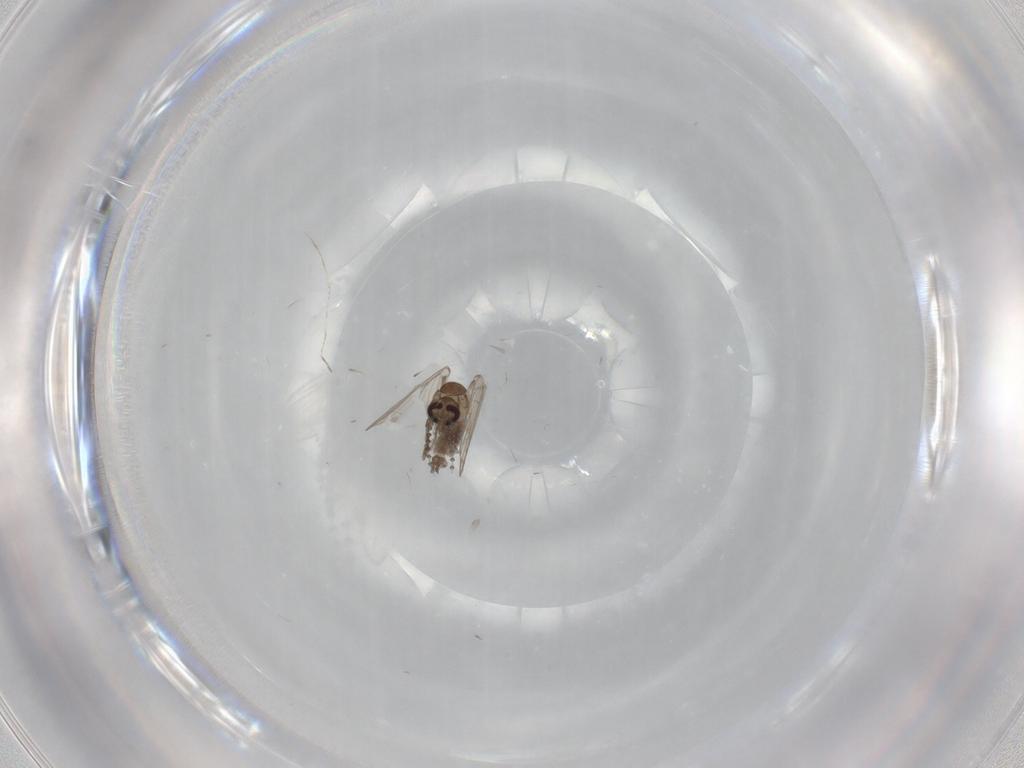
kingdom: Animalia
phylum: Arthropoda
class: Insecta
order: Diptera
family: Psychodidae
